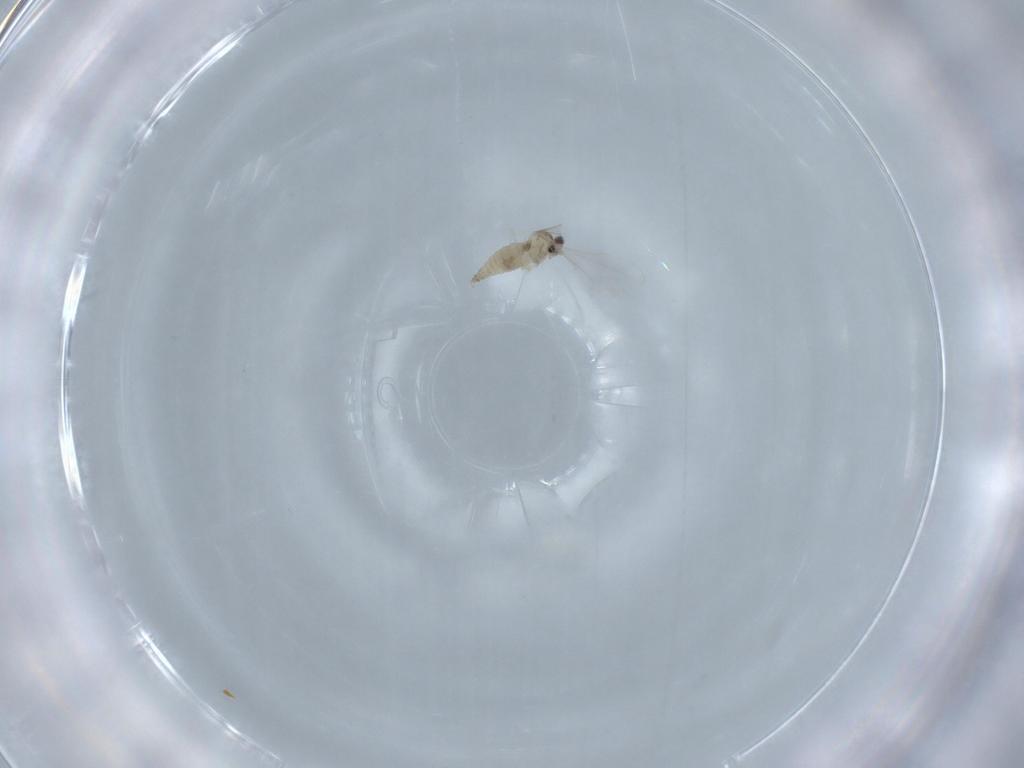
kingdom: Animalia
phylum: Arthropoda
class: Insecta
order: Diptera
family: Cecidomyiidae
